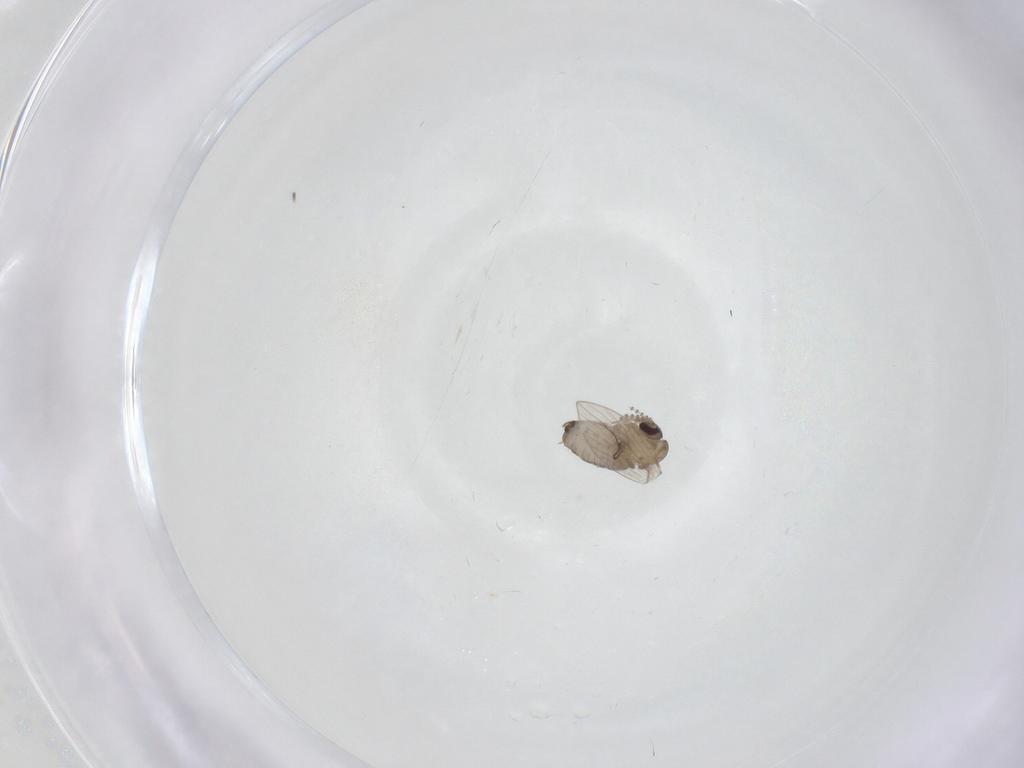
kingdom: Animalia
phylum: Arthropoda
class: Insecta
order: Diptera
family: Psychodidae
